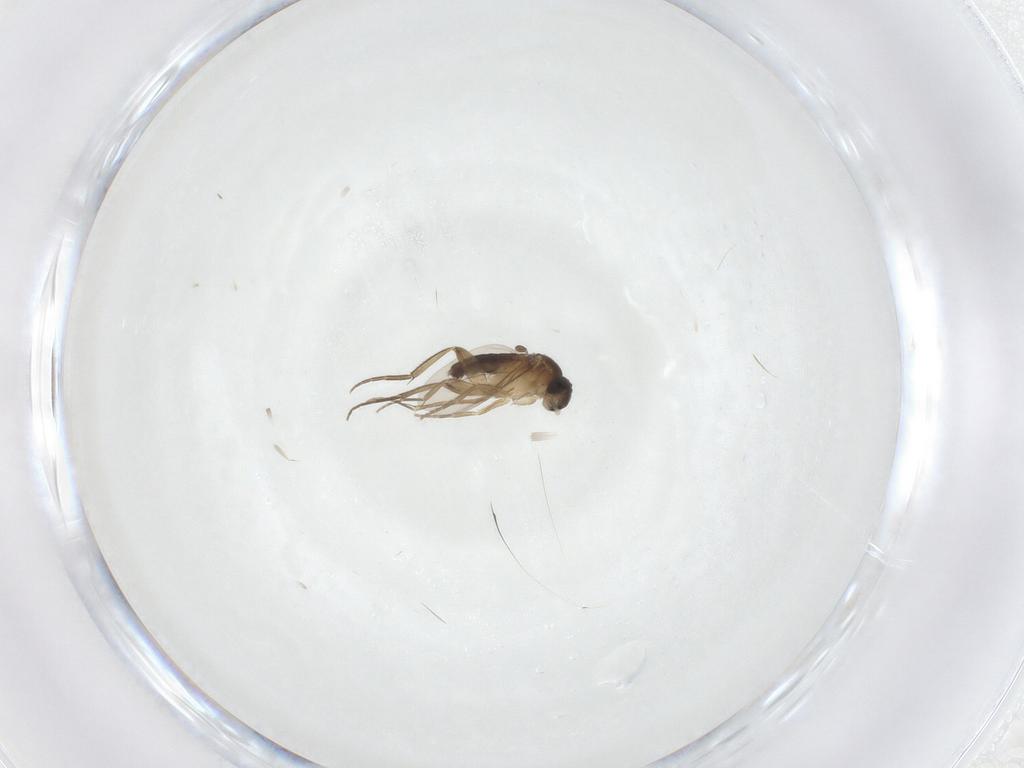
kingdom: Animalia
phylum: Arthropoda
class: Insecta
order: Diptera
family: Phoridae
